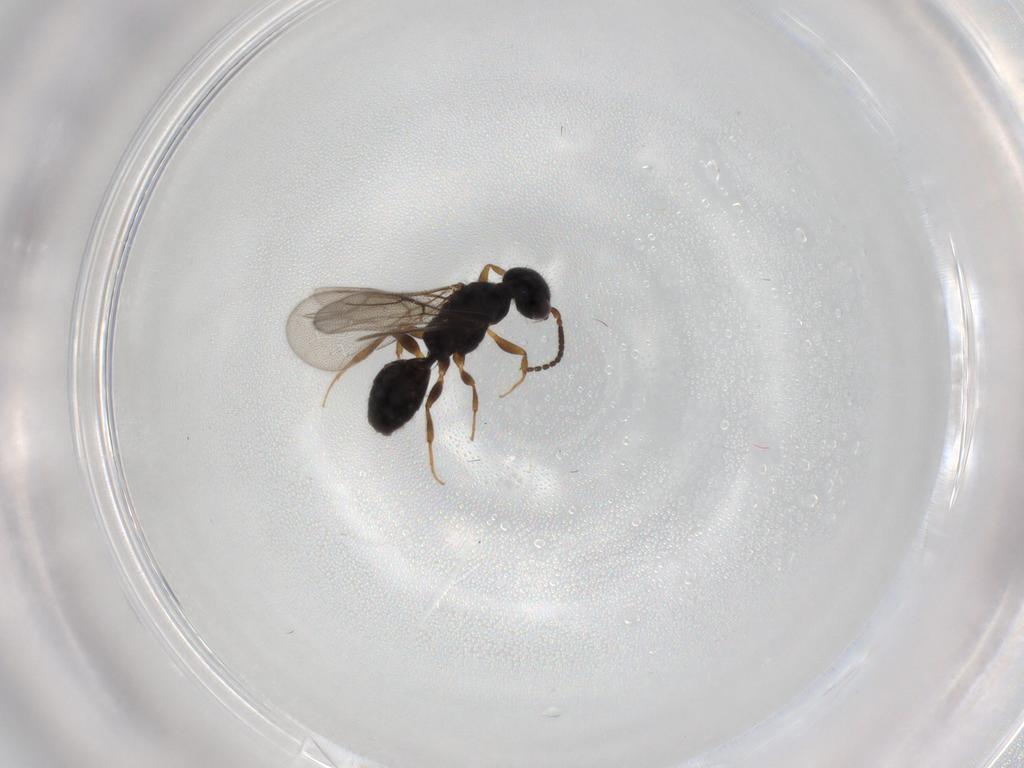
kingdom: Animalia
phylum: Arthropoda
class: Insecta
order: Hymenoptera
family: Bethylidae
